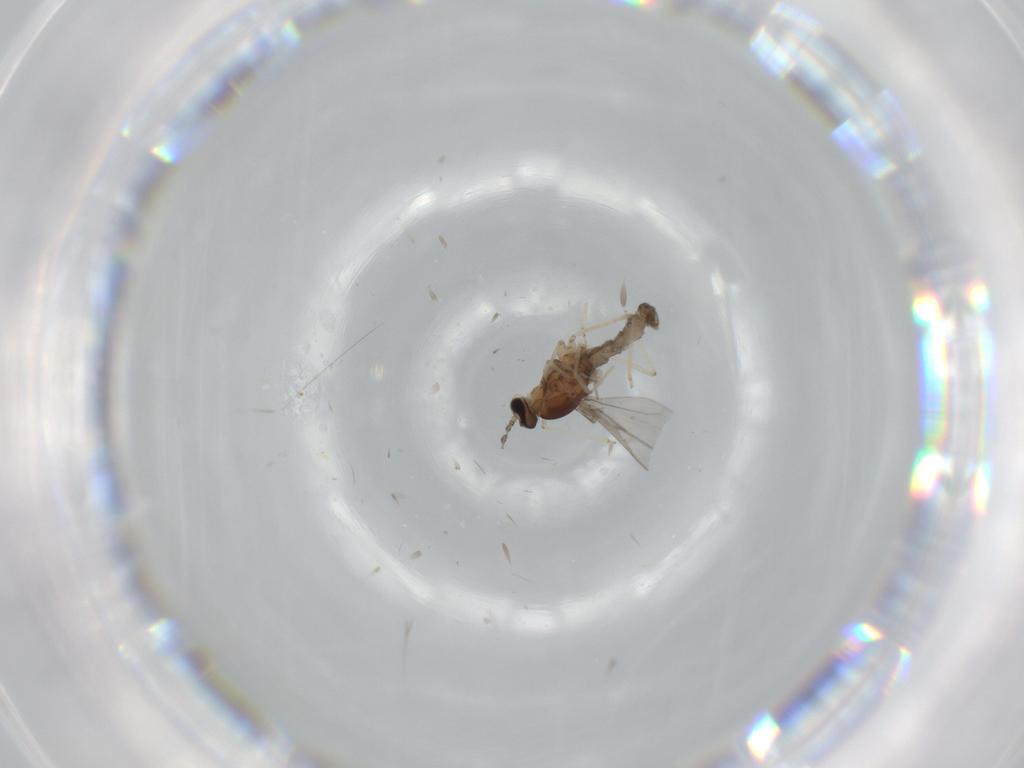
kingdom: Animalia
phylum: Arthropoda
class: Insecta
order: Diptera
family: Cecidomyiidae
